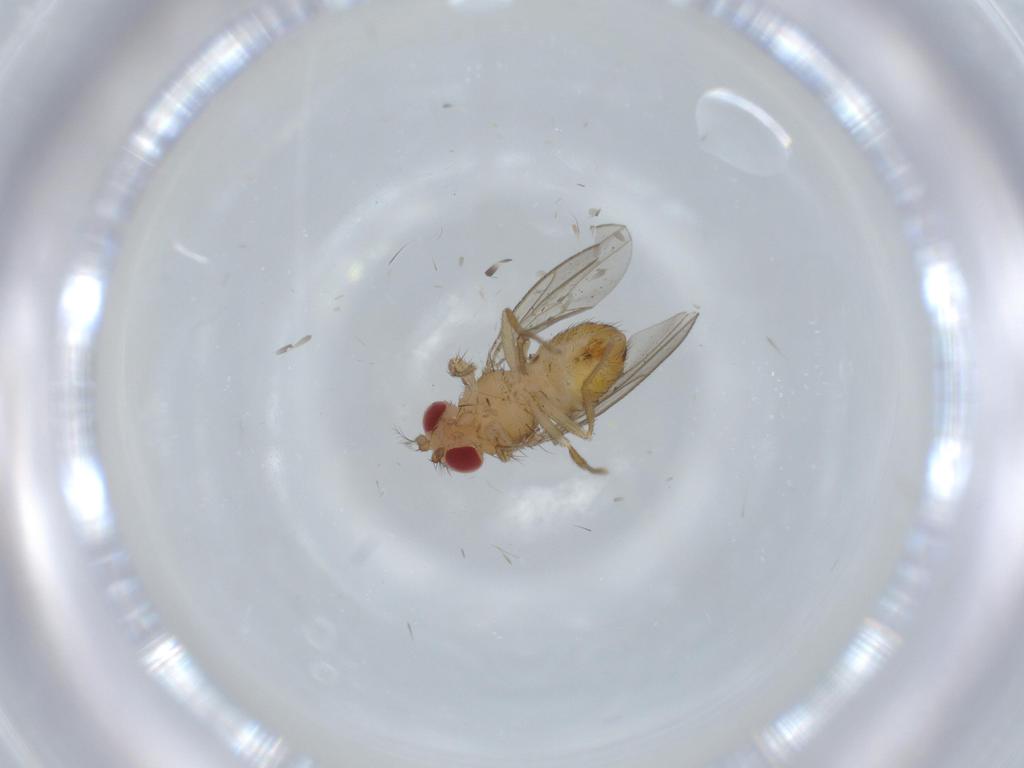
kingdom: Animalia
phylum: Arthropoda
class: Insecta
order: Diptera
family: Drosophilidae
